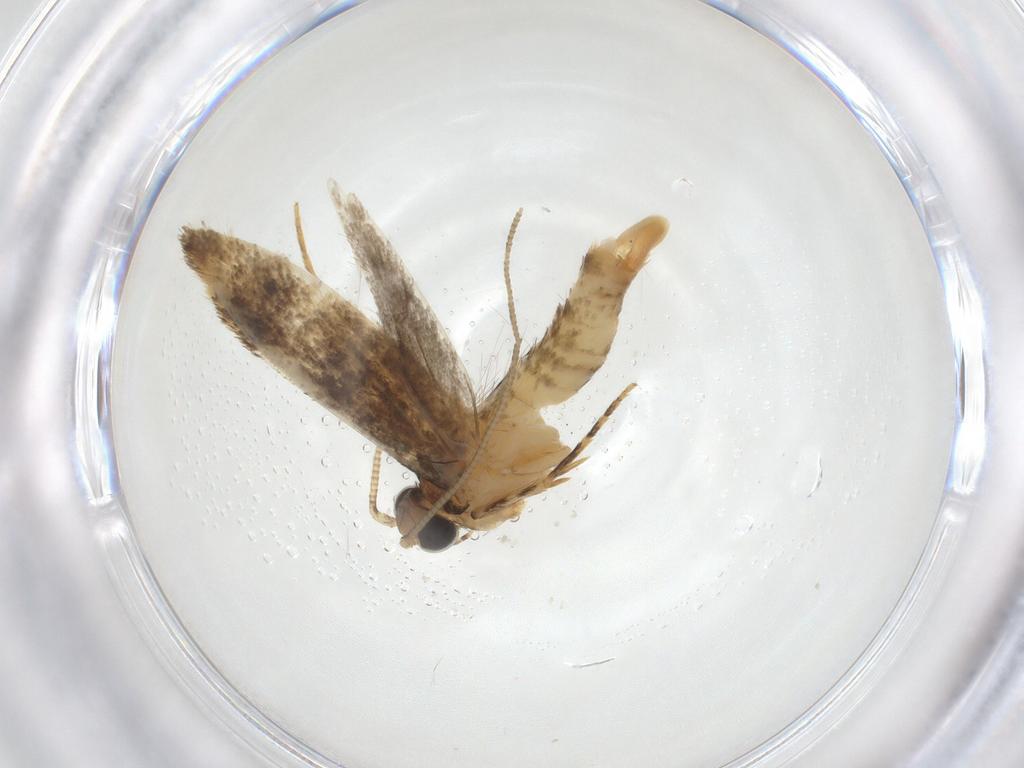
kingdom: Animalia
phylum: Arthropoda
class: Insecta
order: Lepidoptera
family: Tineidae
